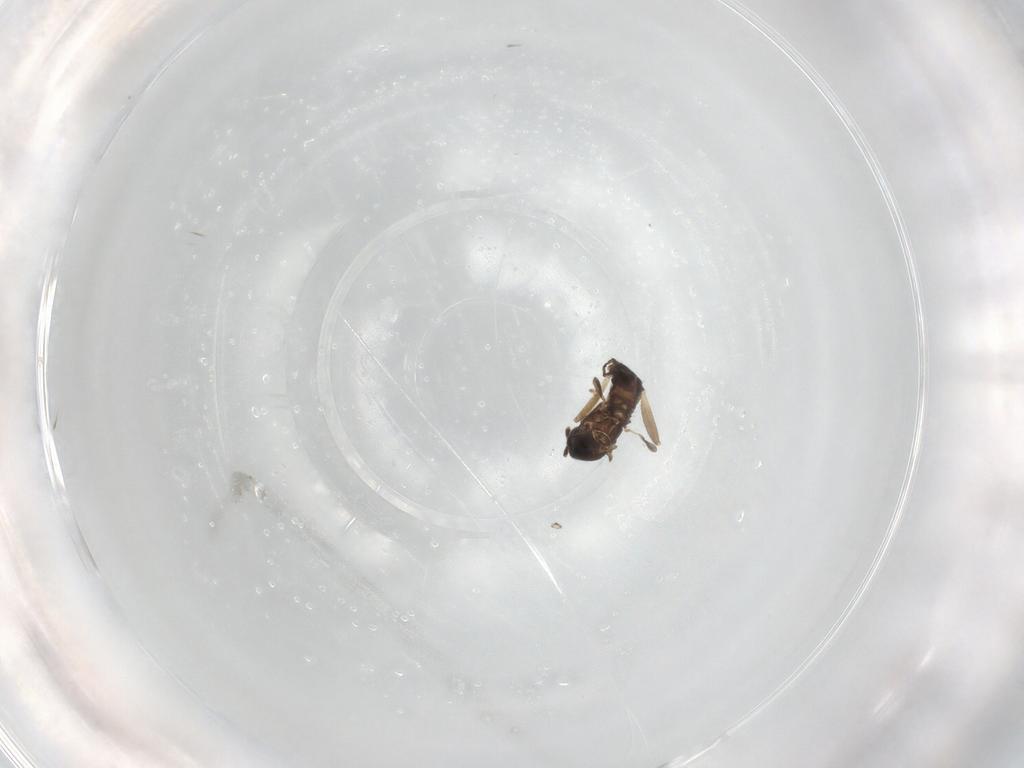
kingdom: Animalia
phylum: Arthropoda
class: Insecta
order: Diptera
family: Sciaridae
